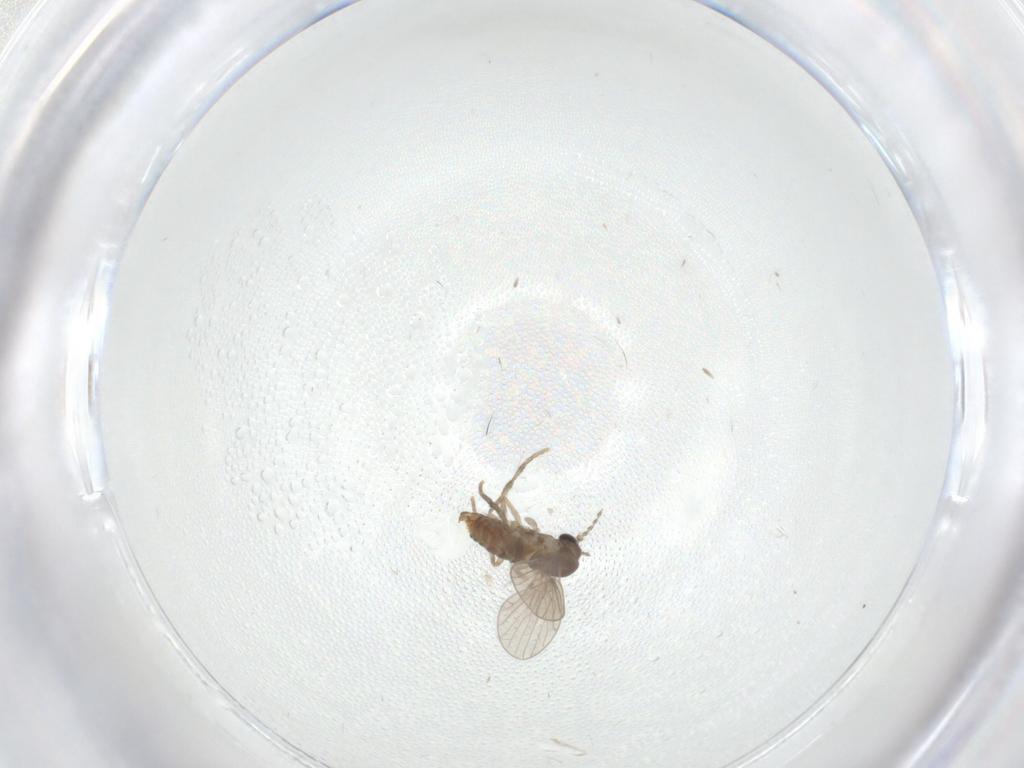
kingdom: Animalia
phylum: Arthropoda
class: Insecta
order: Diptera
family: Psychodidae
